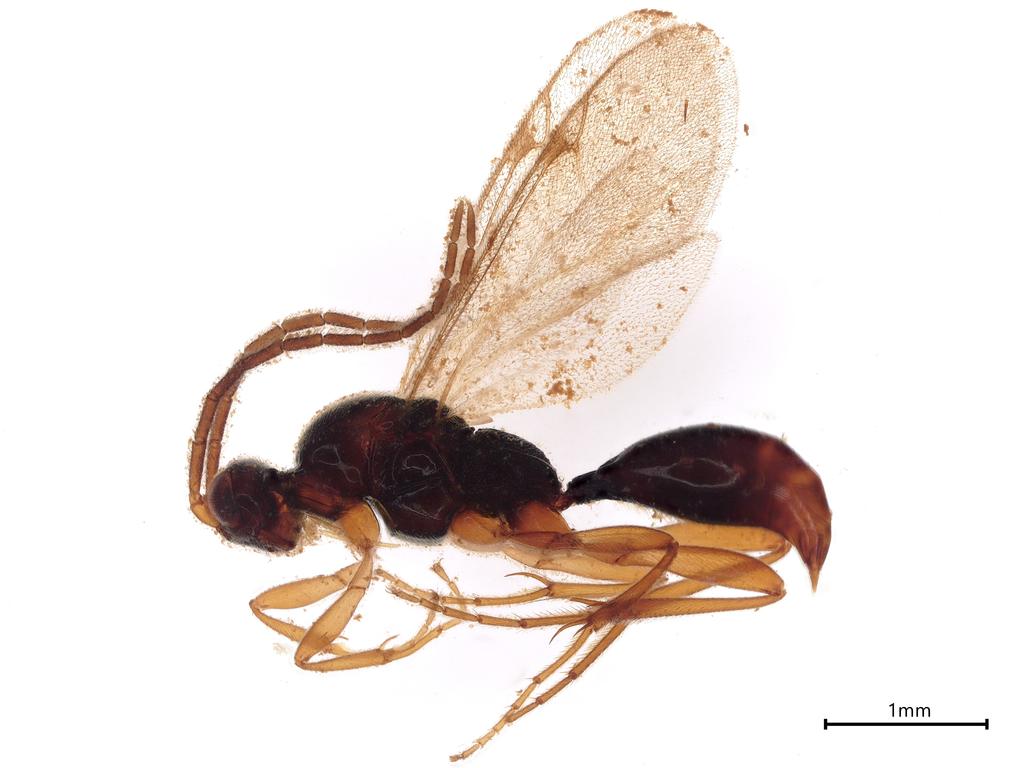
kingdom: Animalia
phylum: Arthropoda
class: Insecta
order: Hymenoptera
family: Proctotrupidae
